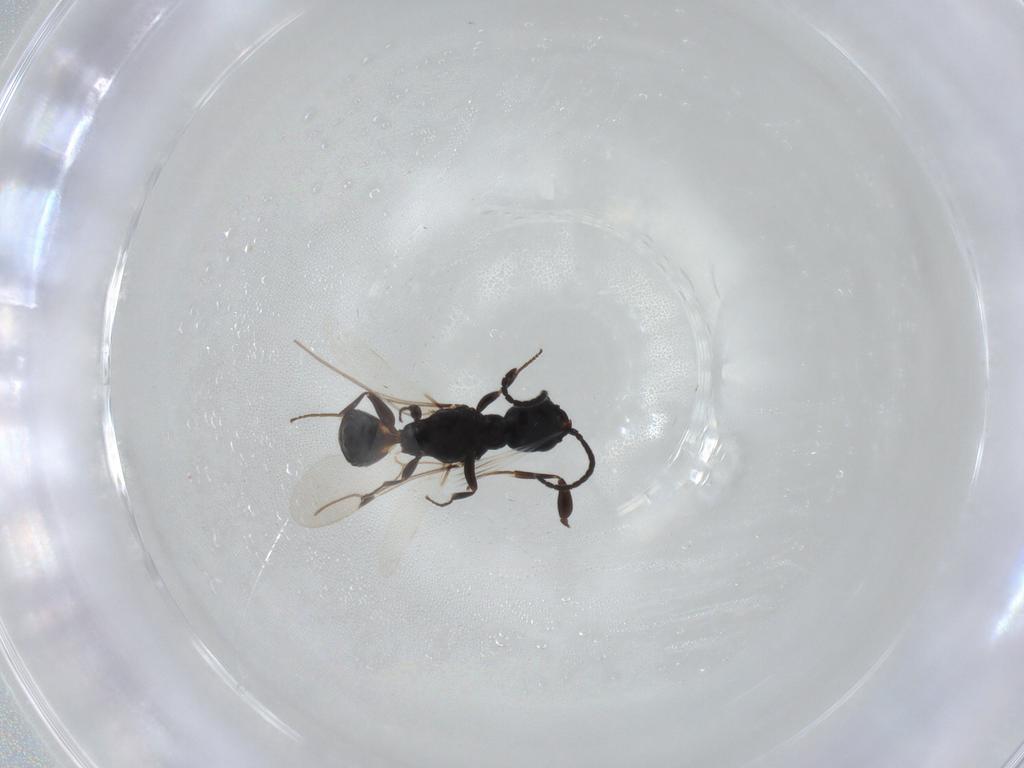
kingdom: Animalia
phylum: Arthropoda
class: Insecta
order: Hymenoptera
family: Bethylidae
